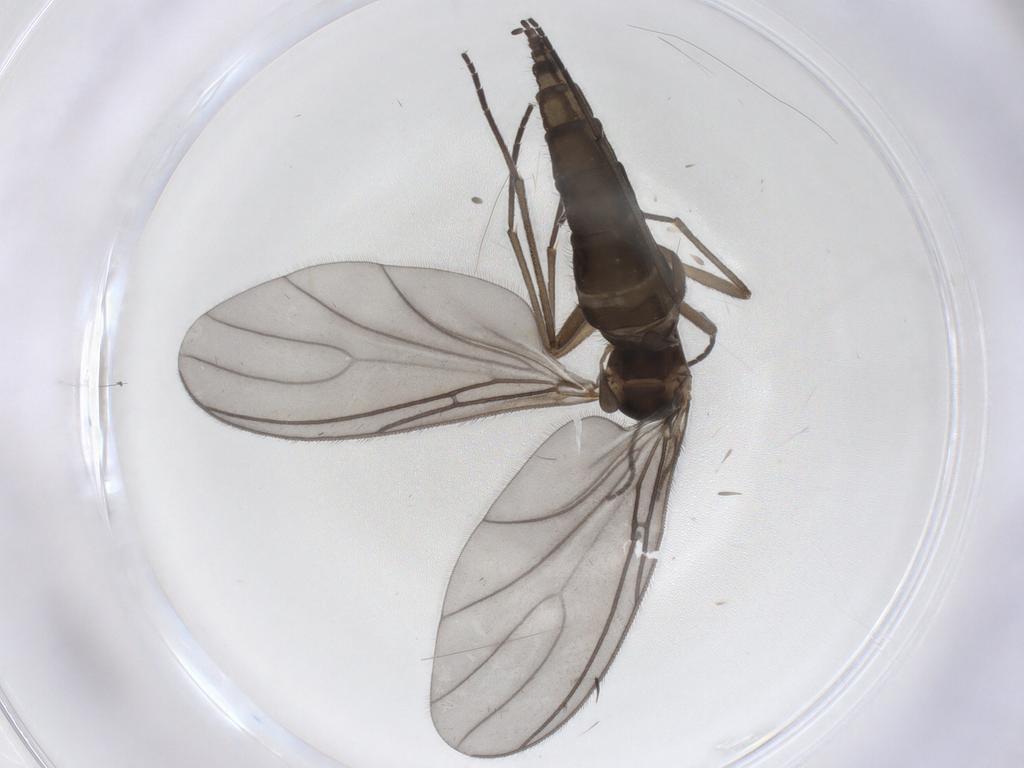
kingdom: Animalia
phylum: Arthropoda
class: Insecta
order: Diptera
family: Sciaridae
